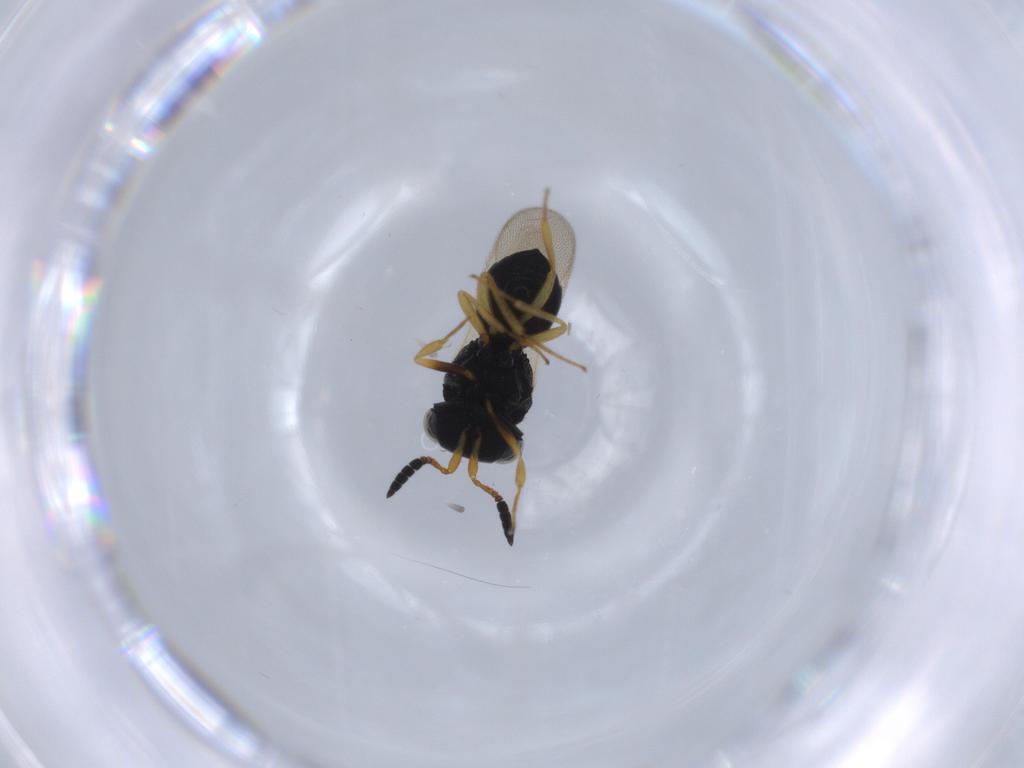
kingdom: Animalia
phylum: Arthropoda
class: Insecta
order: Hymenoptera
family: Scelionidae
